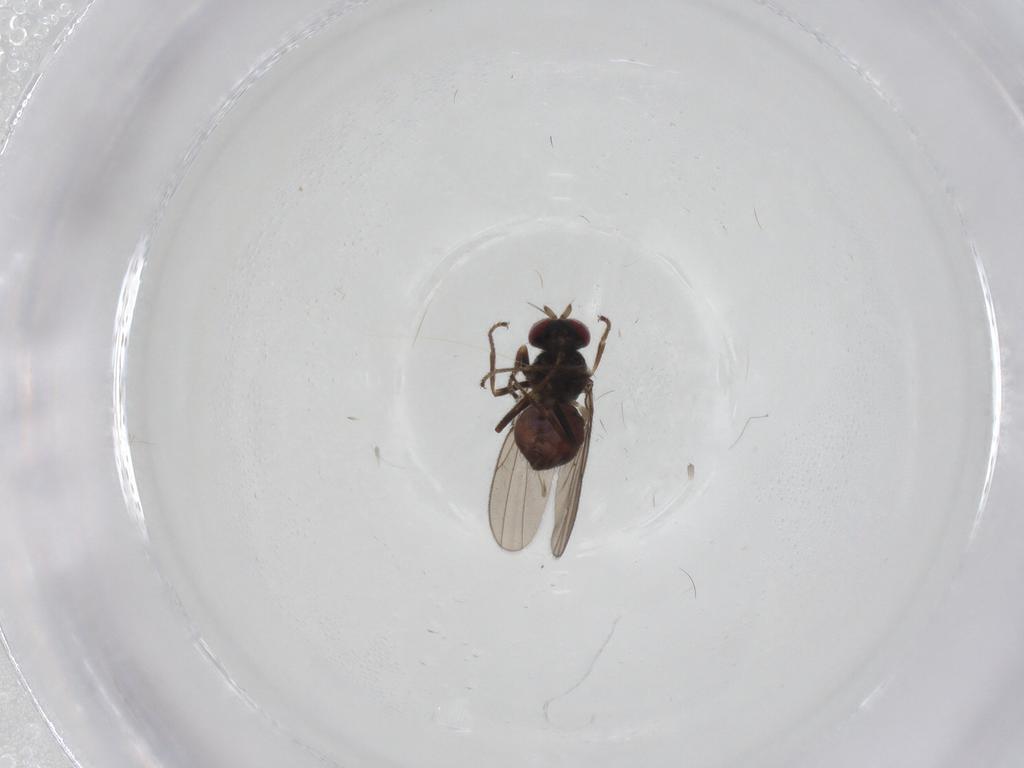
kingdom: Animalia
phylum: Arthropoda
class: Insecta
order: Diptera
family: Ephydridae
